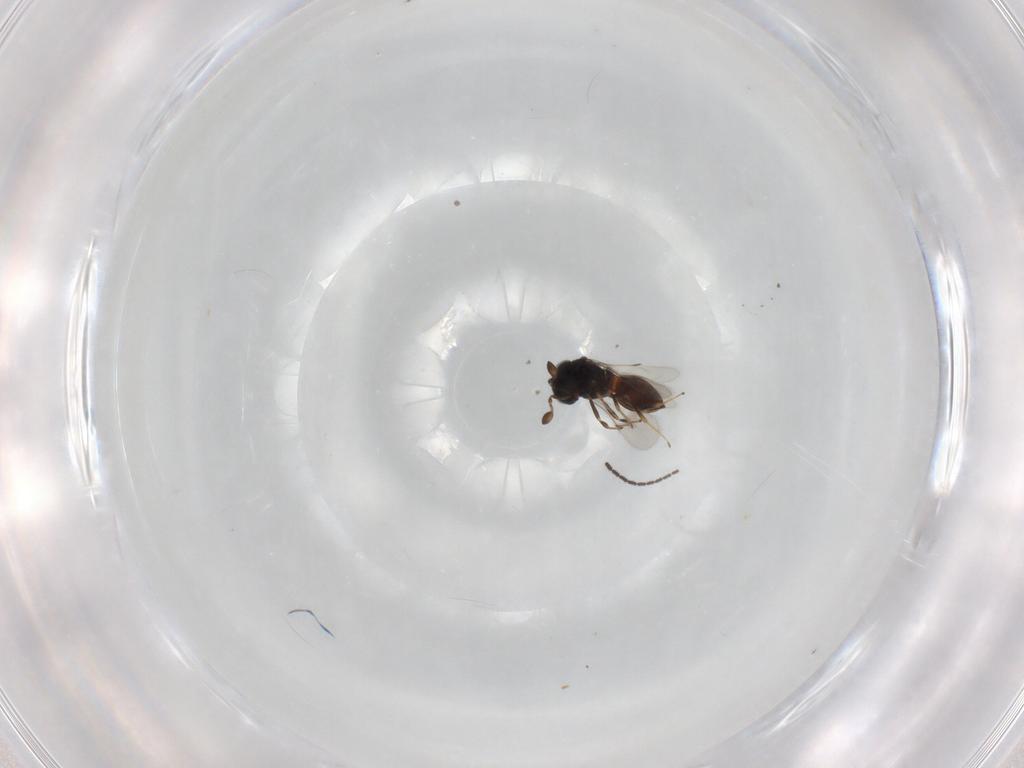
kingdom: Animalia
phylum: Arthropoda
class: Insecta
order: Hymenoptera
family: Scelionidae
